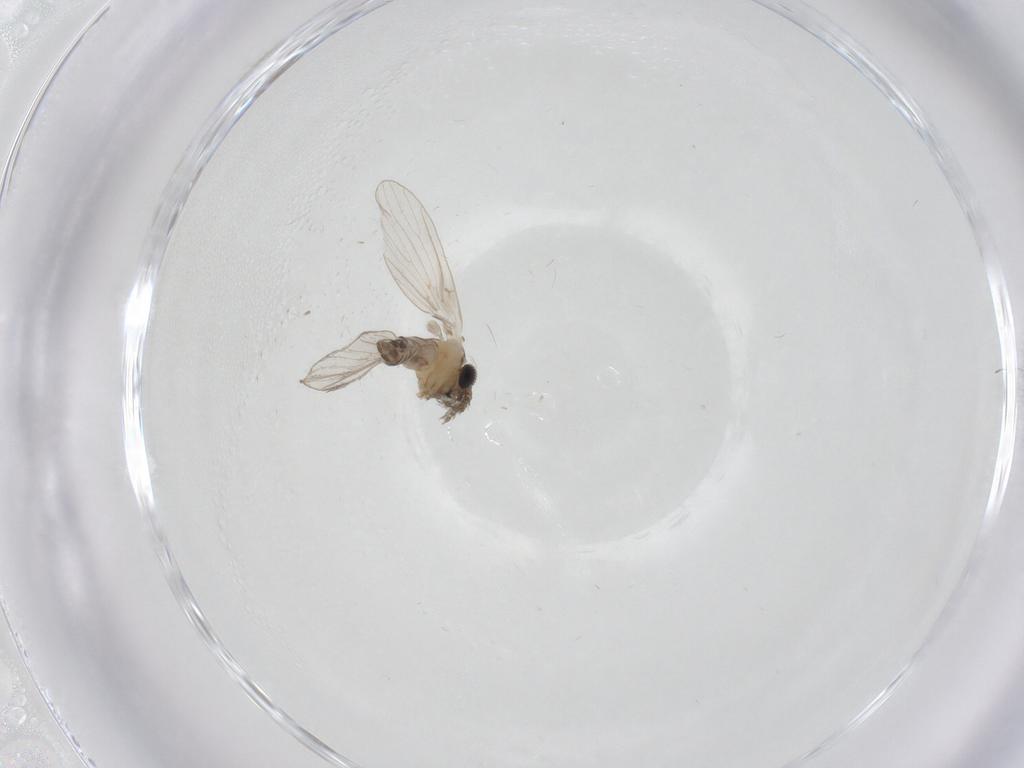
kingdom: Animalia
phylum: Arthropoda
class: Insecta
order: Diptera
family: Psychodidae
